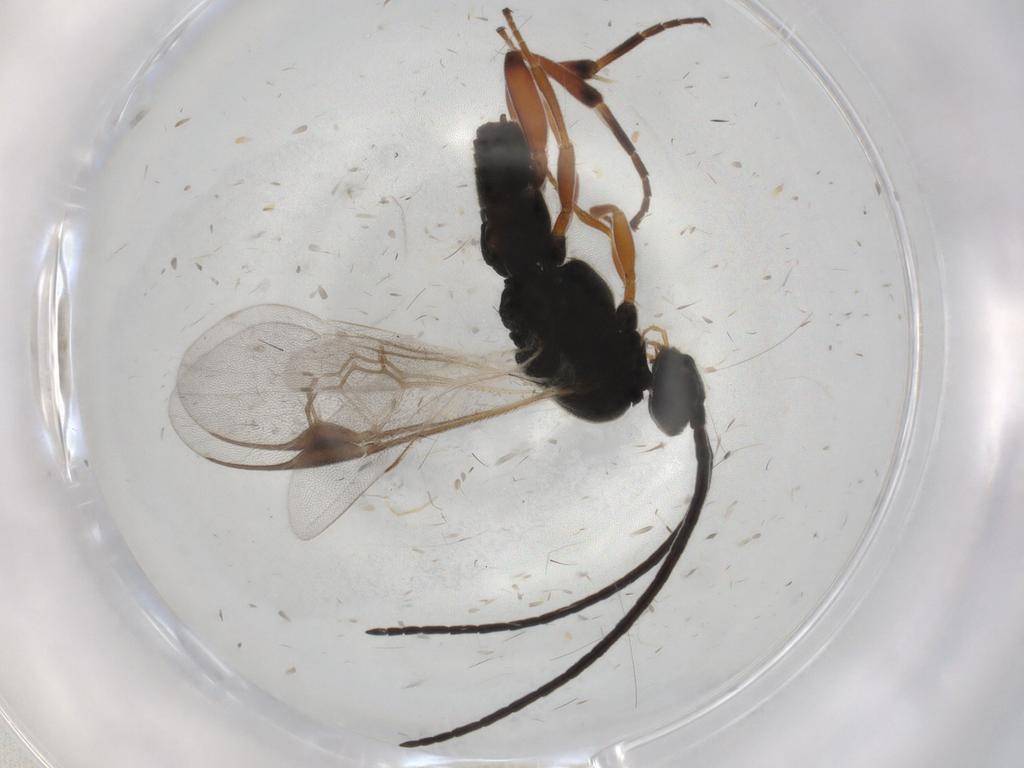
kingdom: Animalia
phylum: Arthropoda
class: Insecta
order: Hymenoptera
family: Braconidae
